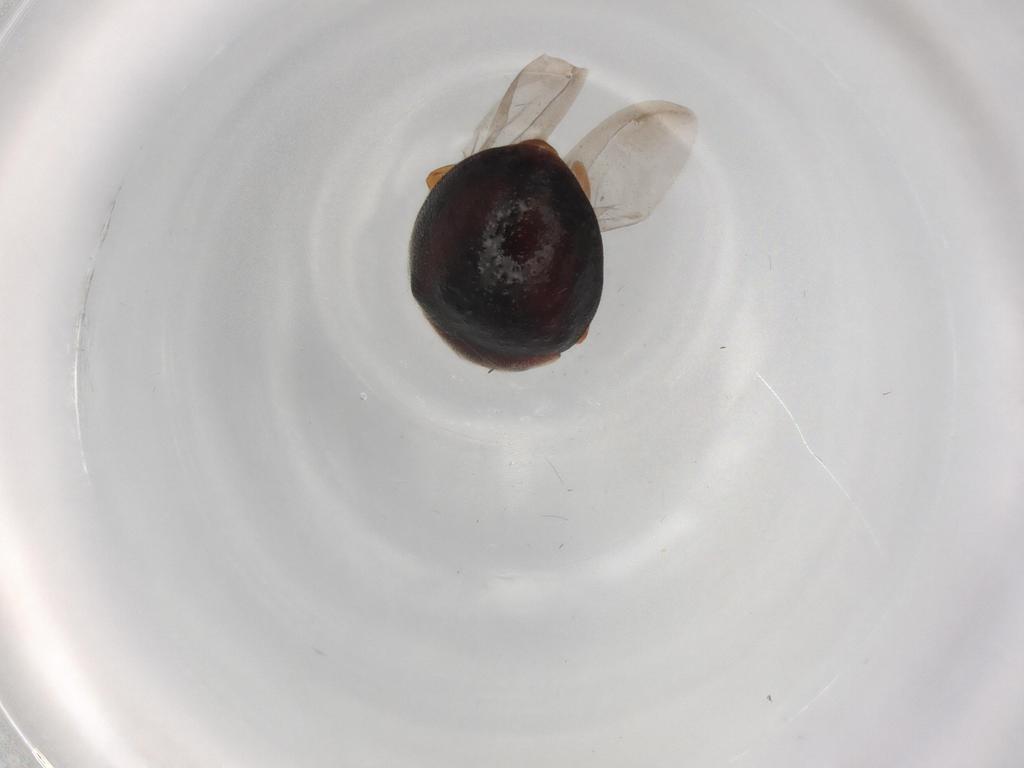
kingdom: Animalia
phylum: Arthropoda
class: Insecta
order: Coleoptera
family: Coccinellidae
